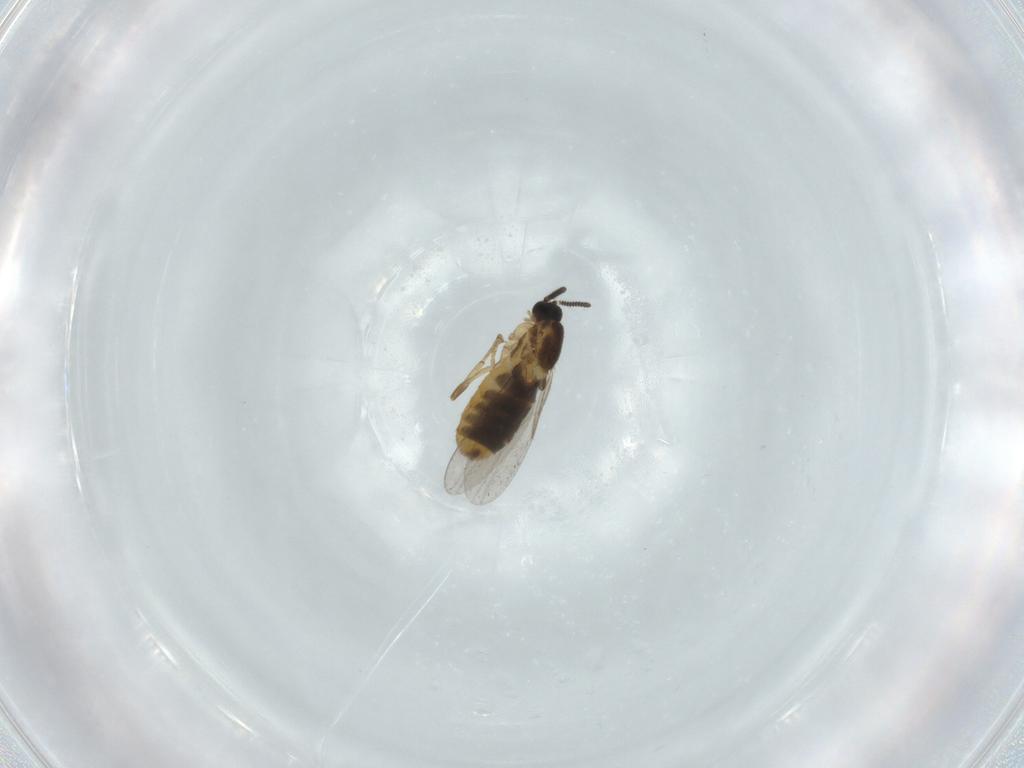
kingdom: Animalia
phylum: Arthropoda
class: Insecta
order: Diptera
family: Scatopsidae
